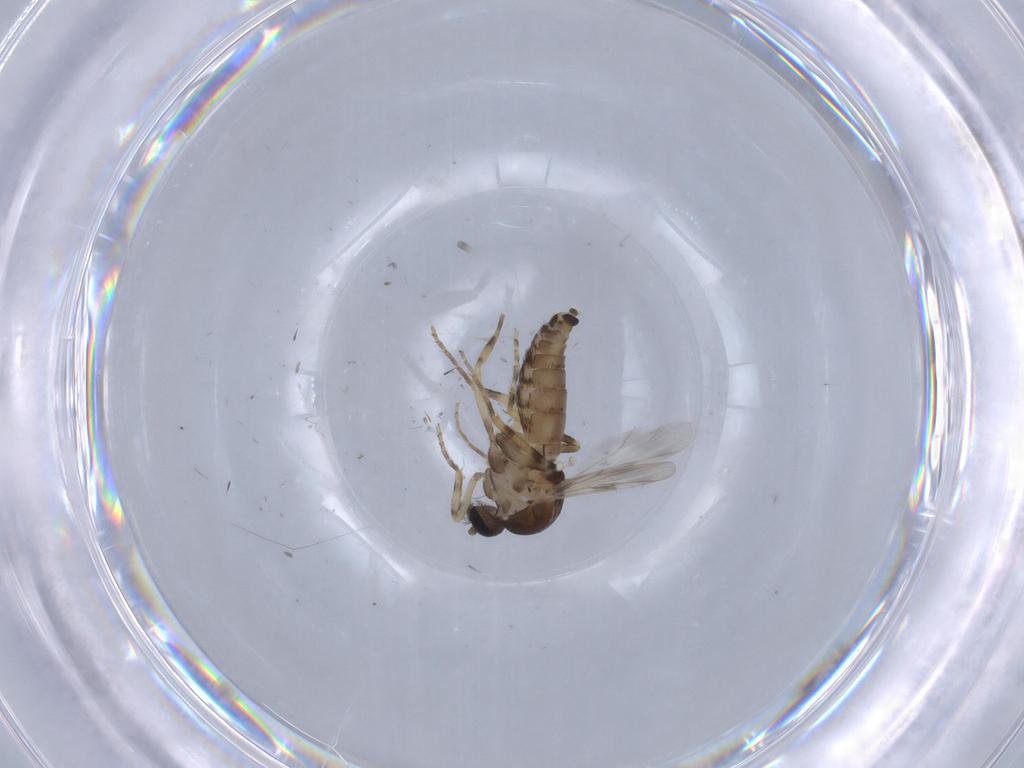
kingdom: Animalia
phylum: Arthropoda
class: Insecta
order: Diptera
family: Ceratopogonidae
